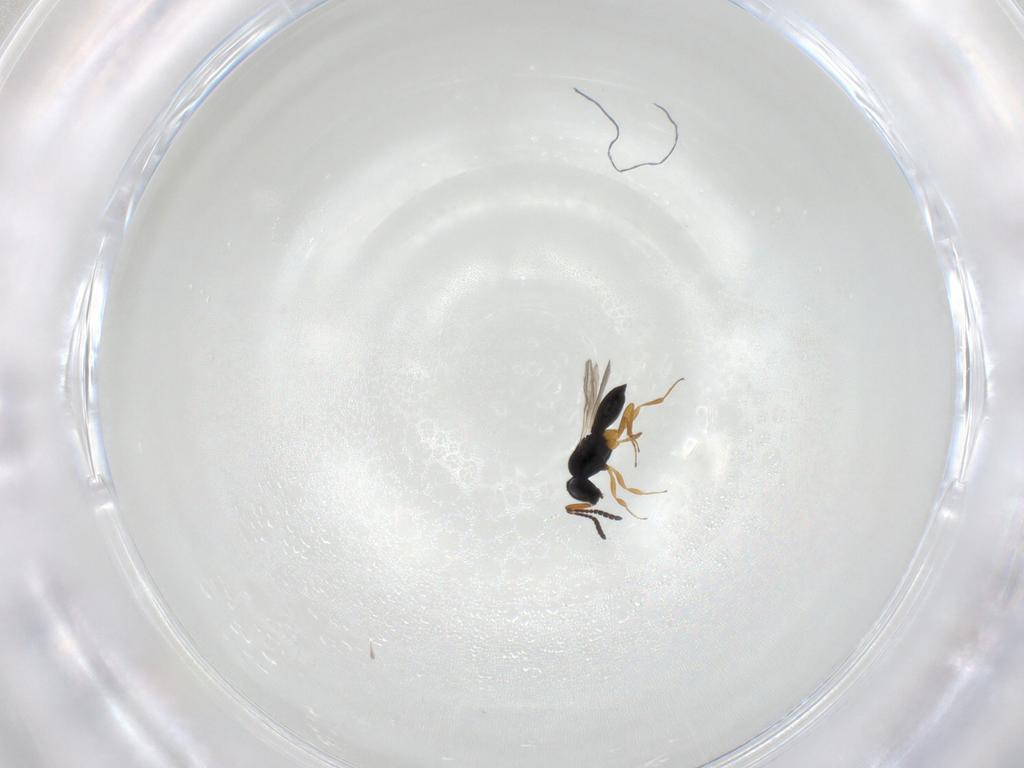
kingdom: Animalia
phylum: Arthropoda
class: Insecta
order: Hymenoptera
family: Scelionidae
